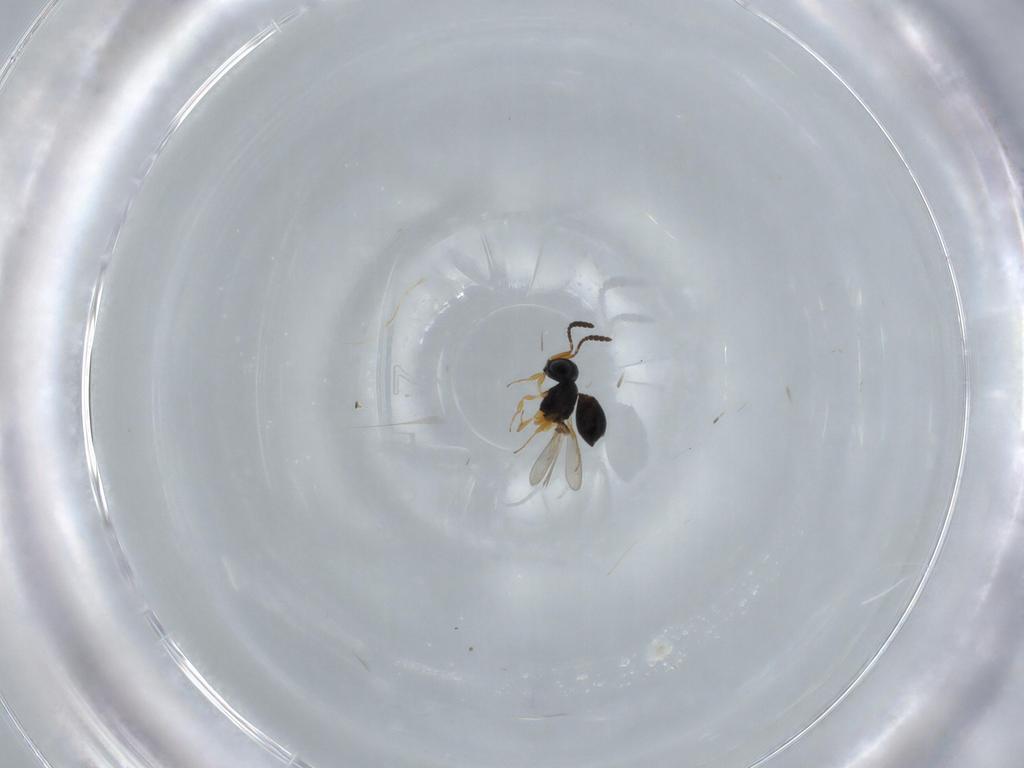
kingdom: Animalia
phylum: Arthropoda
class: Insecta
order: Hymenoptera
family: Scelionidae
